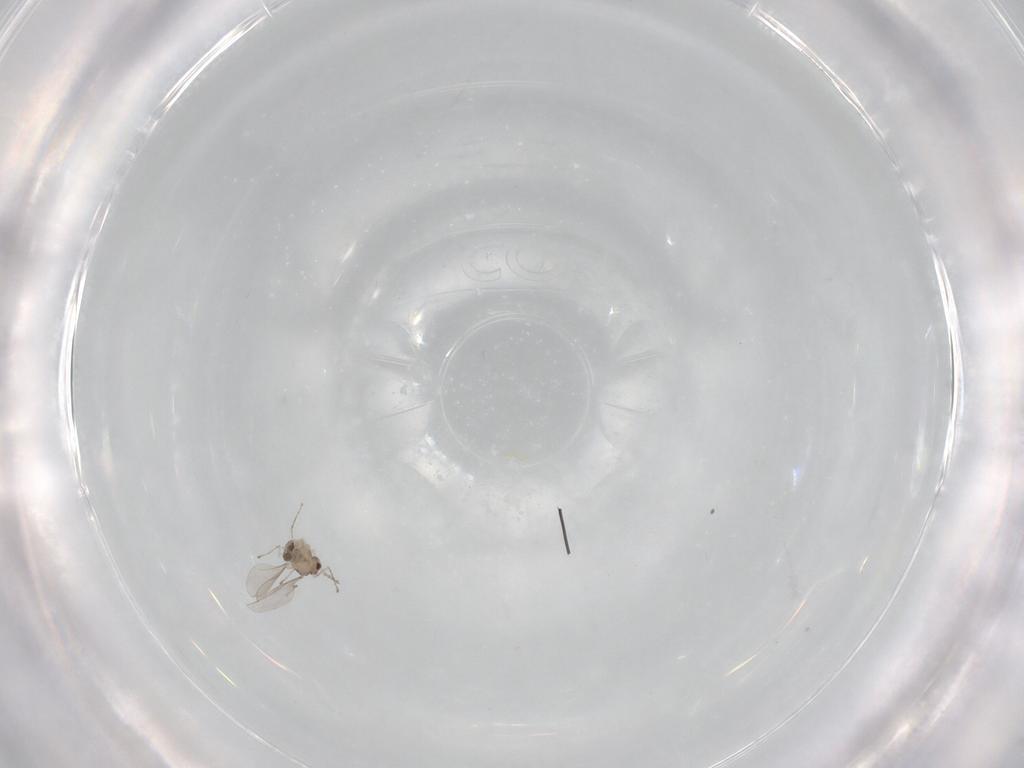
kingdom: Animalia
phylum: Arthropoda
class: Insecta
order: Diptera
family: Cecidomyiidae
